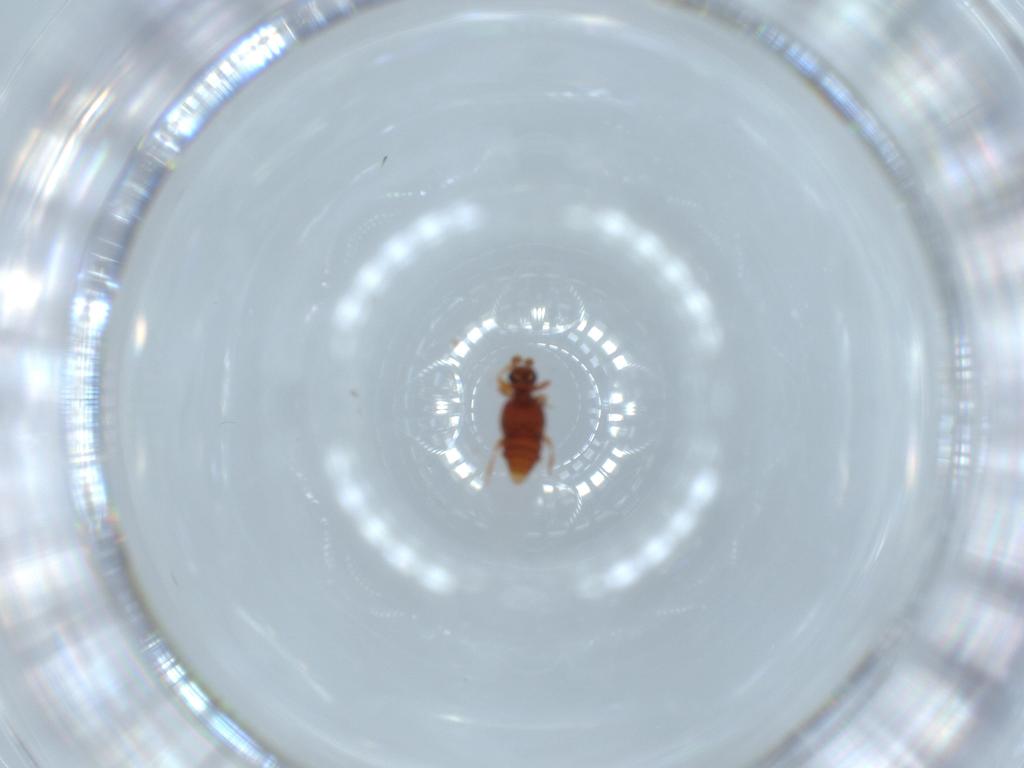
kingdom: Animalia
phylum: Arthropoda
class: Insecta
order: Coleoptera
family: Staphylinidae
